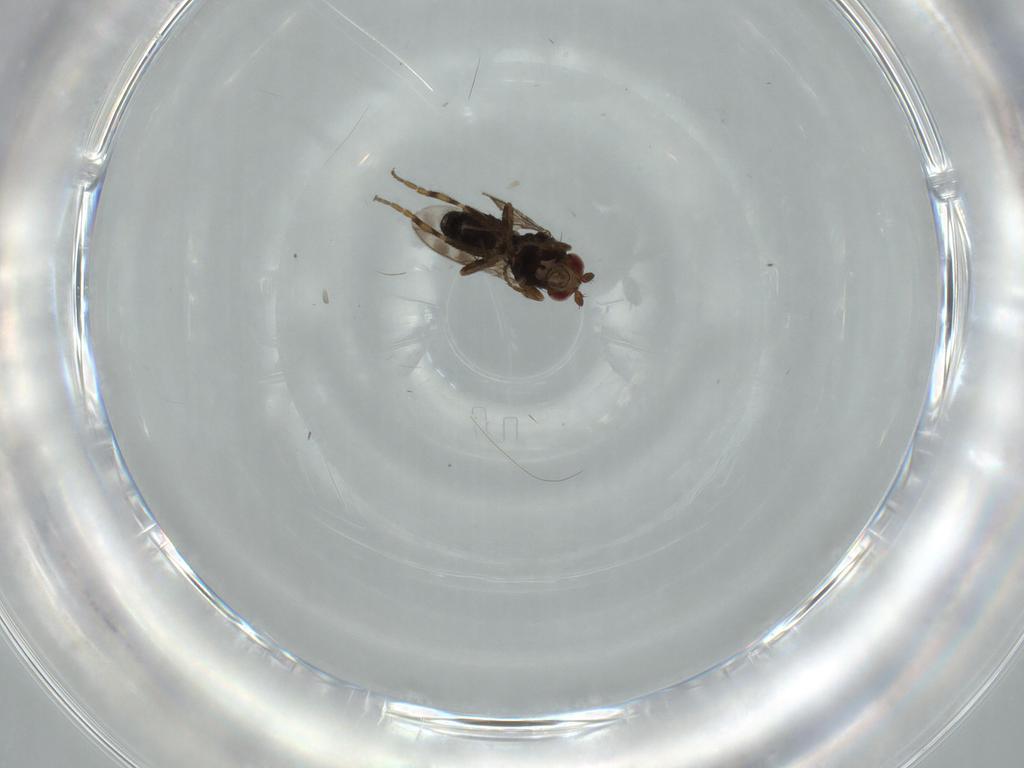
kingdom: Animalia
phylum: Arthropoda
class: Insecta
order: Diptera
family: Sphaeroceridae
